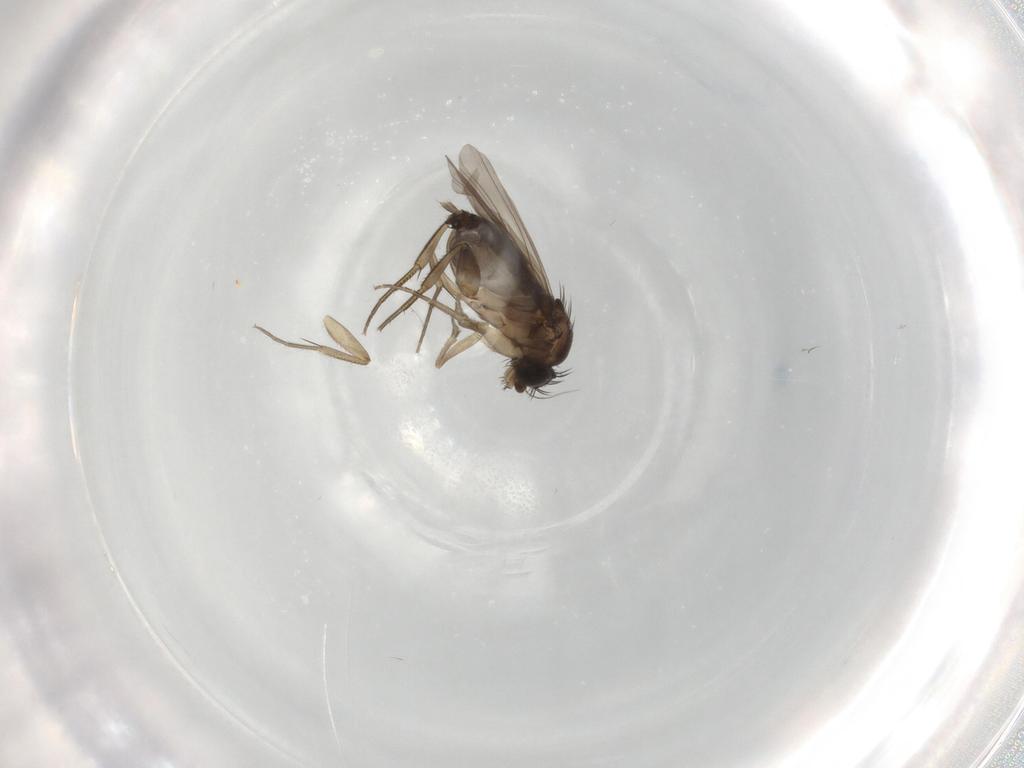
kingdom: Animalia
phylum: Arthropoda
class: Insecta
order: Diptera
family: Phoridae
